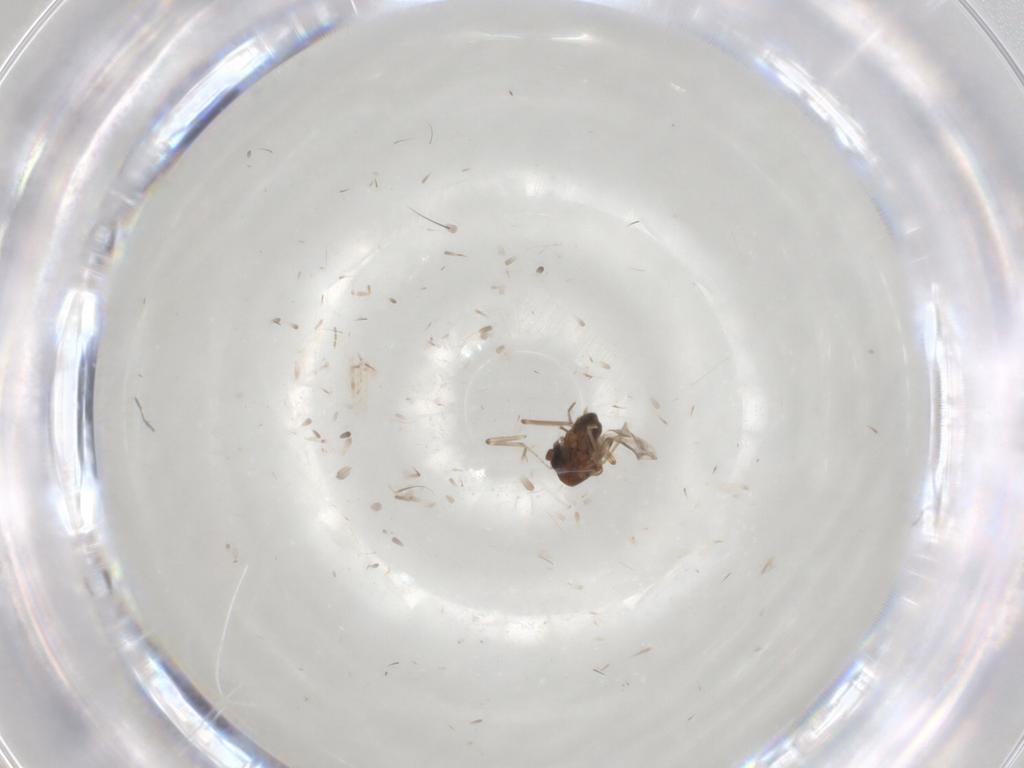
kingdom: Animalia
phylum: Arthropoda
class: Insecta
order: Diptera
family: Ceratopogonidae
